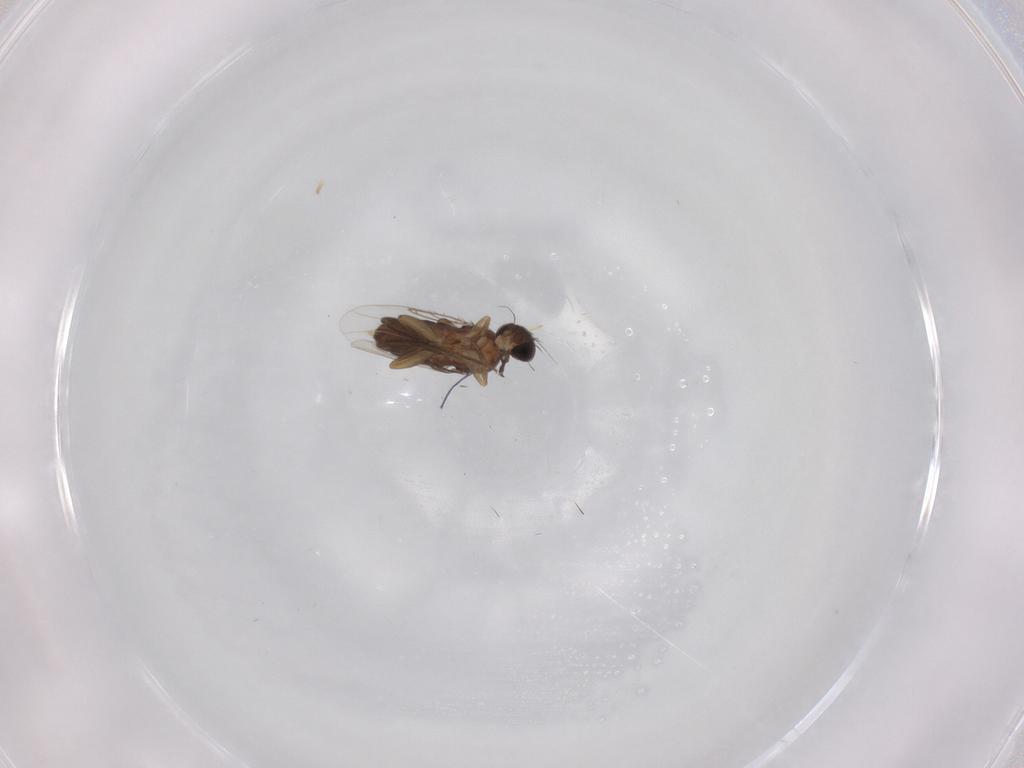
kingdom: Animalia
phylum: Arthropoda
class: Insecta
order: Diptera
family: Phoridae
